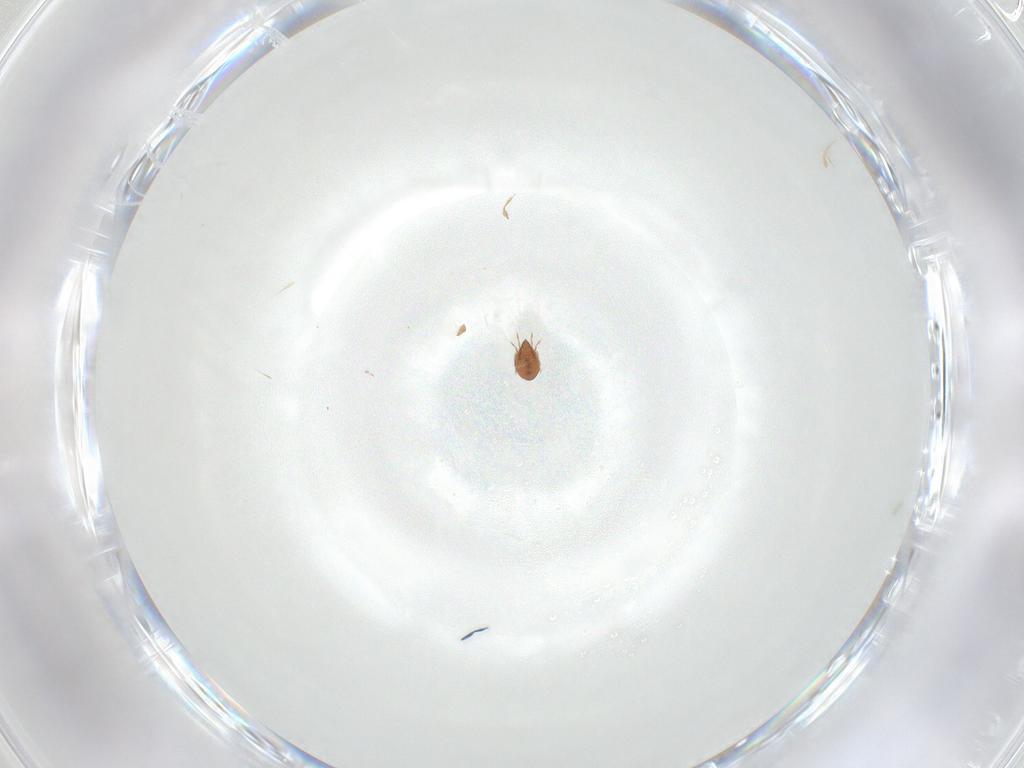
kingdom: Animalia
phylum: Arthropoda
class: Arachnida
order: Sarcoptiformes
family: Oribatulidae
